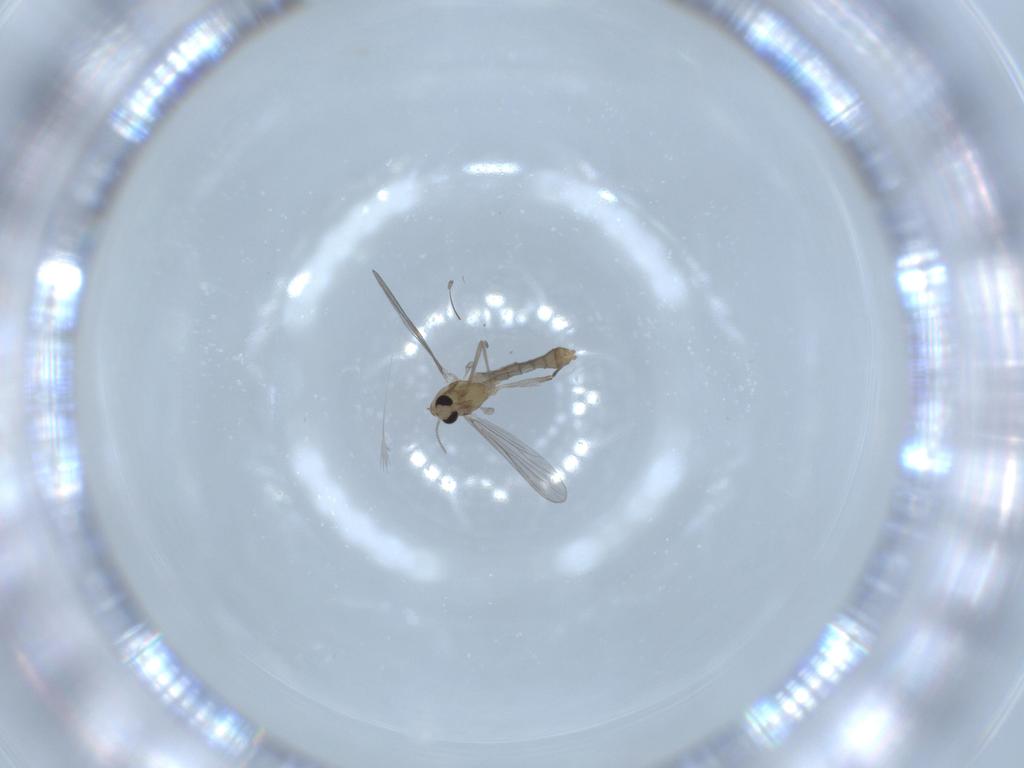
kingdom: Animalia
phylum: Arthropoda
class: Insecta
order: Diptera
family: Chironomidae
